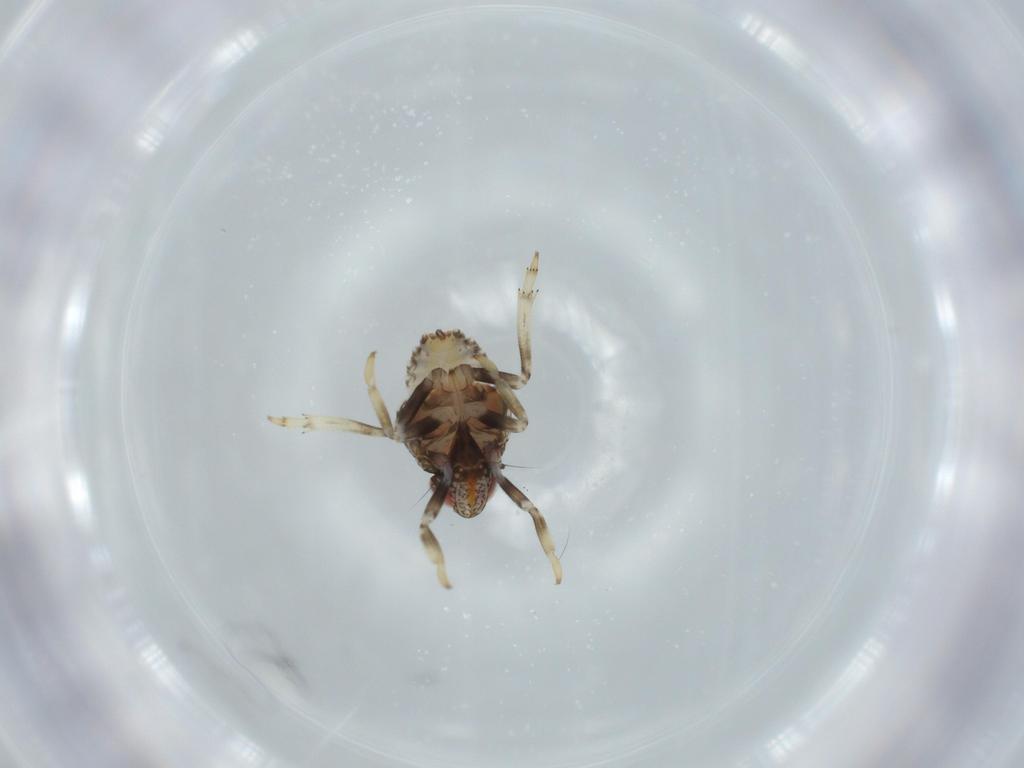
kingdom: Animalia
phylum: Arthropoda
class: Insecta
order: Hemiptera
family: Issidae
